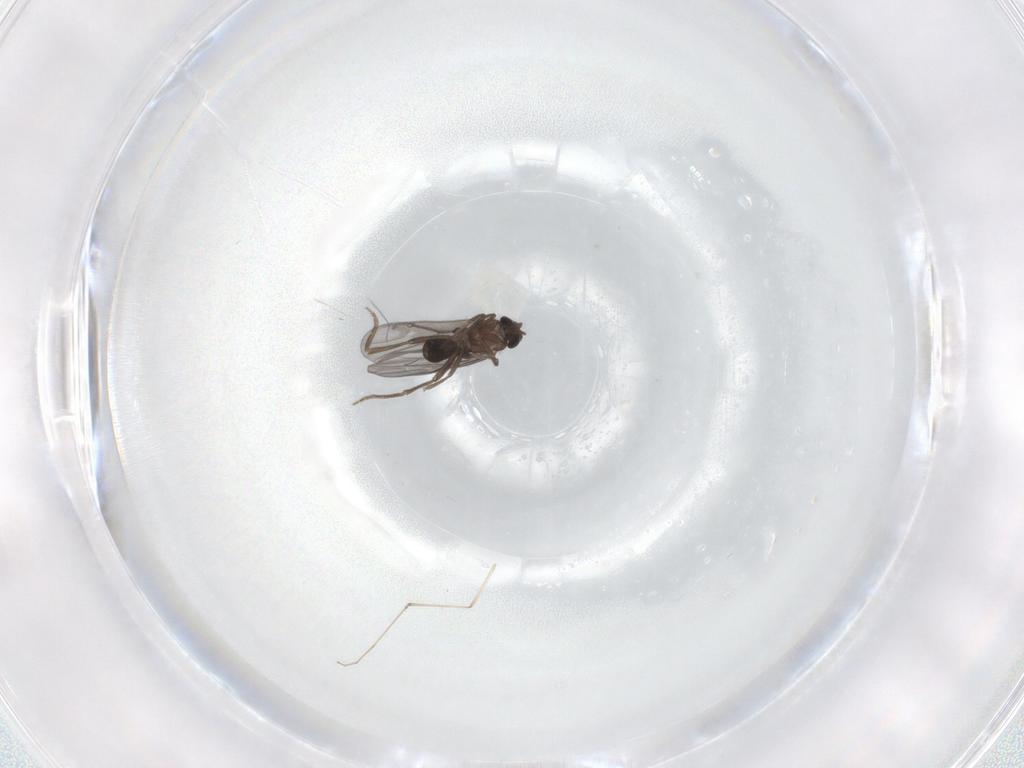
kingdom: Animalia
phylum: Arthropoda
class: Insecta
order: Diptera
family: Cecidomyiidae
